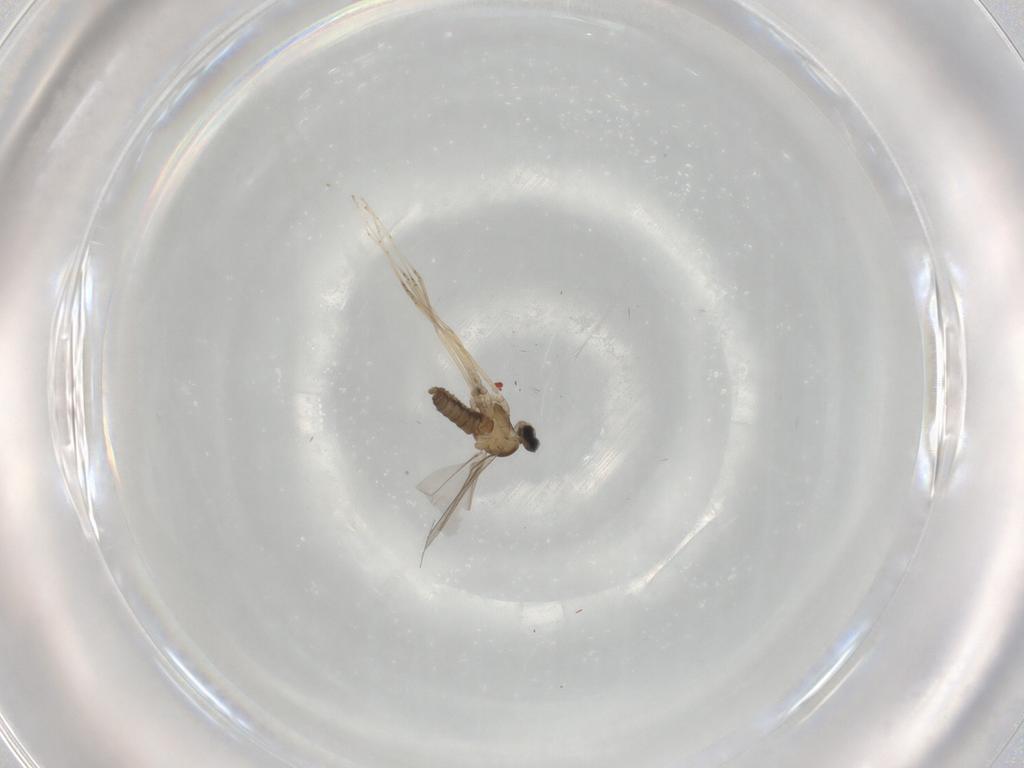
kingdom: Animalia
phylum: Arthropoda
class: Insecta
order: Diptera
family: Cecidomyiidae
